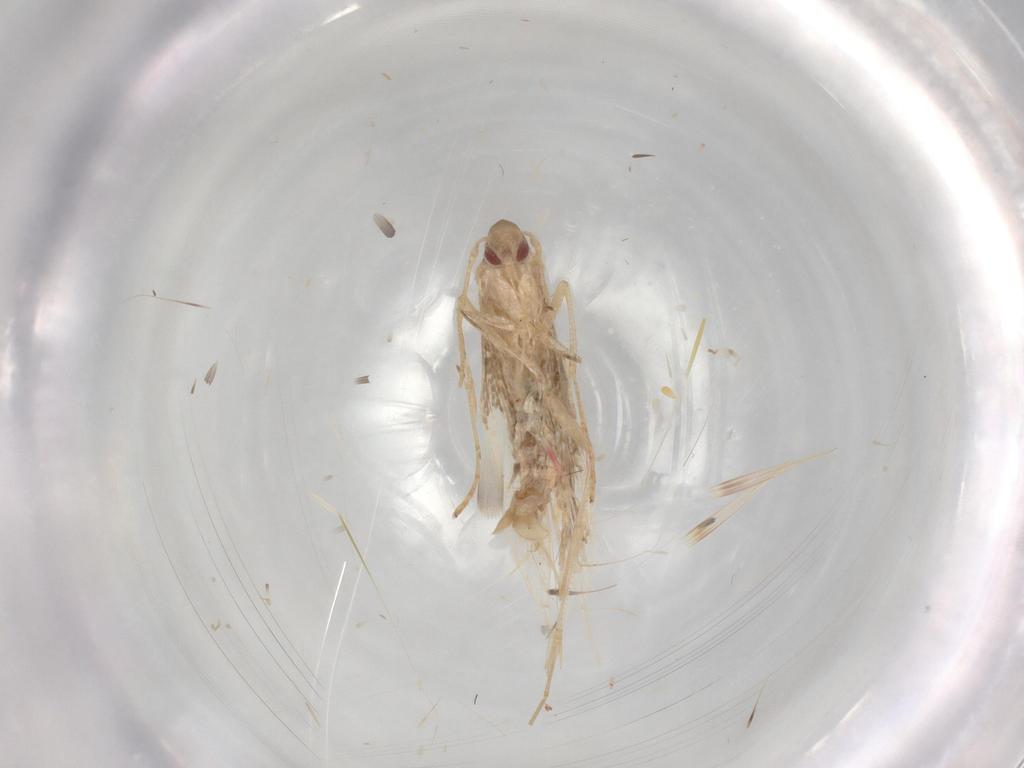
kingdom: Animalia
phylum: Arthropoda
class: Insecta
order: Lepidoptera
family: Cosmopterigidae
